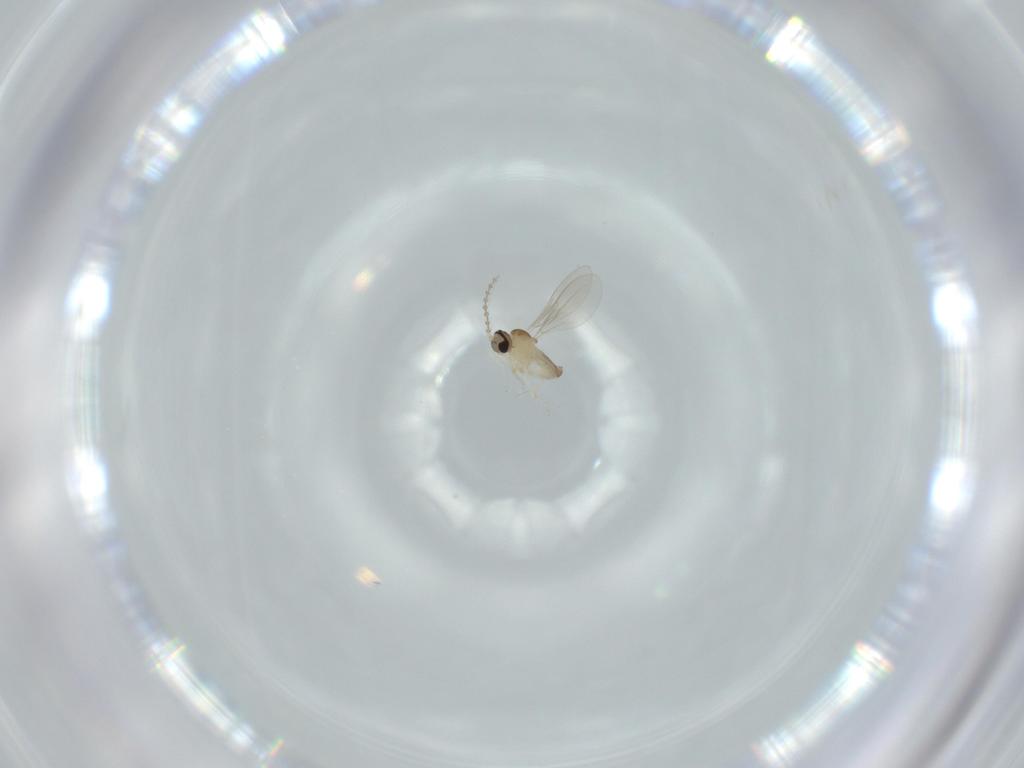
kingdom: Animalia
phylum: Arthropoda
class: Insecta
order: Diptera
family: Cecidomyiidae
